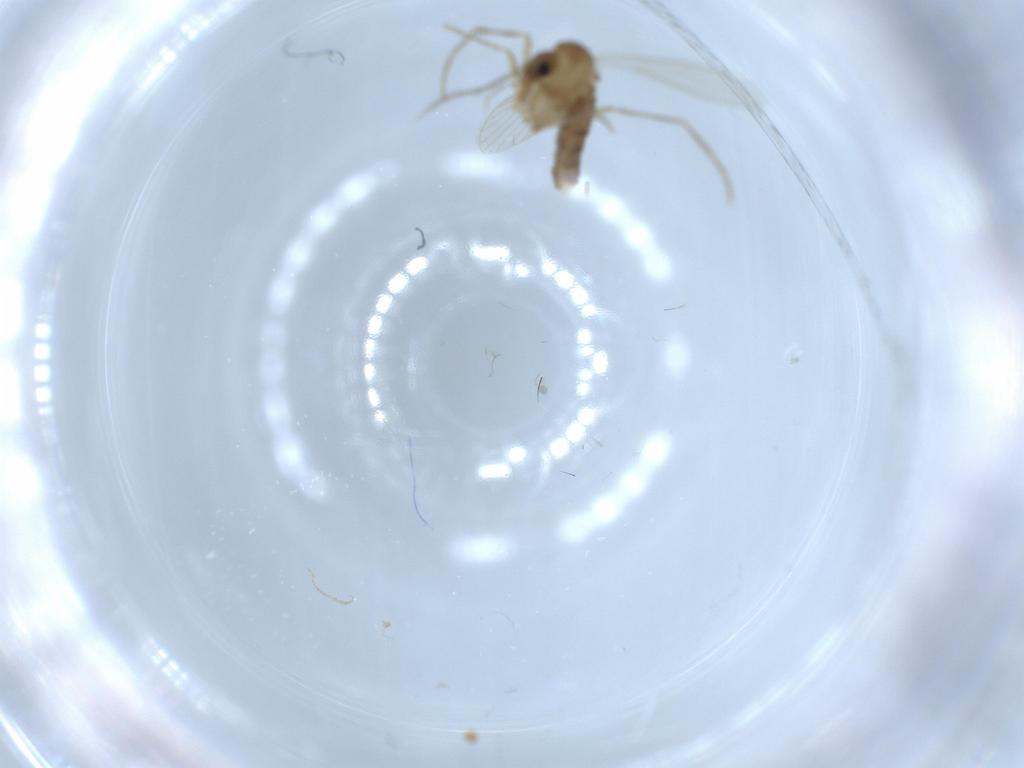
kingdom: Animalia
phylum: Arthropoda
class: Insecta
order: Diptera
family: Psychodidae
